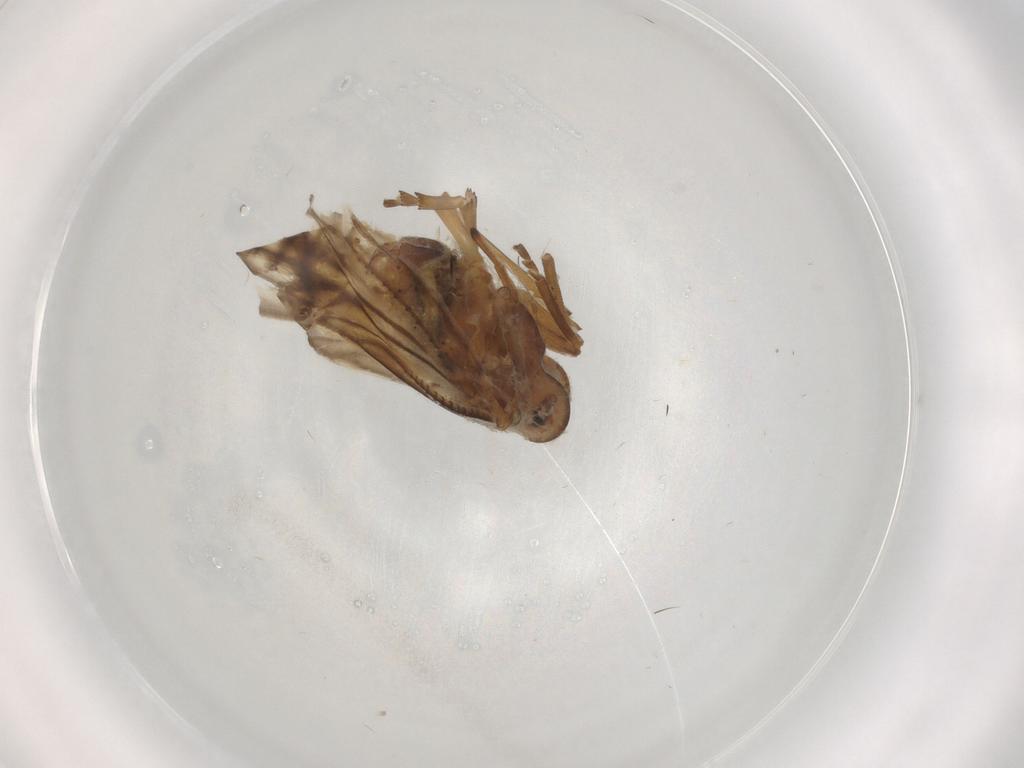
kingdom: Animalia
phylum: Arthropoda
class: Insecta
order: Hemiptera
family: Meenoplidae
